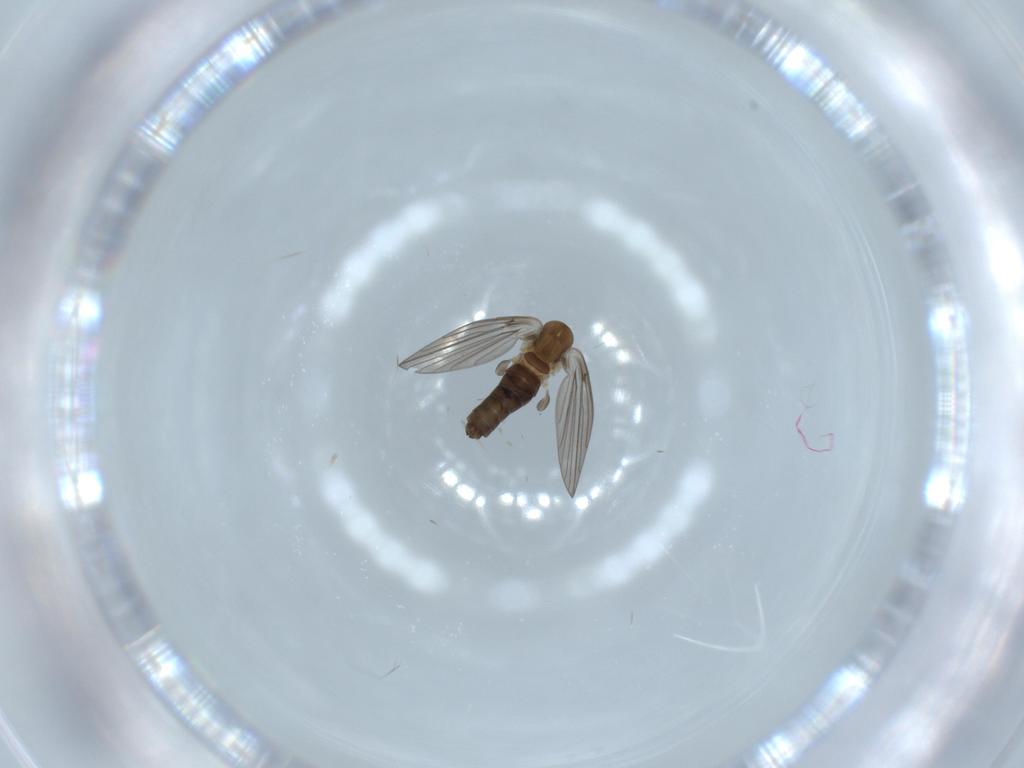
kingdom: Animalia
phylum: Arthropoda
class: Insecta
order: Diptera
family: Psychodidae
